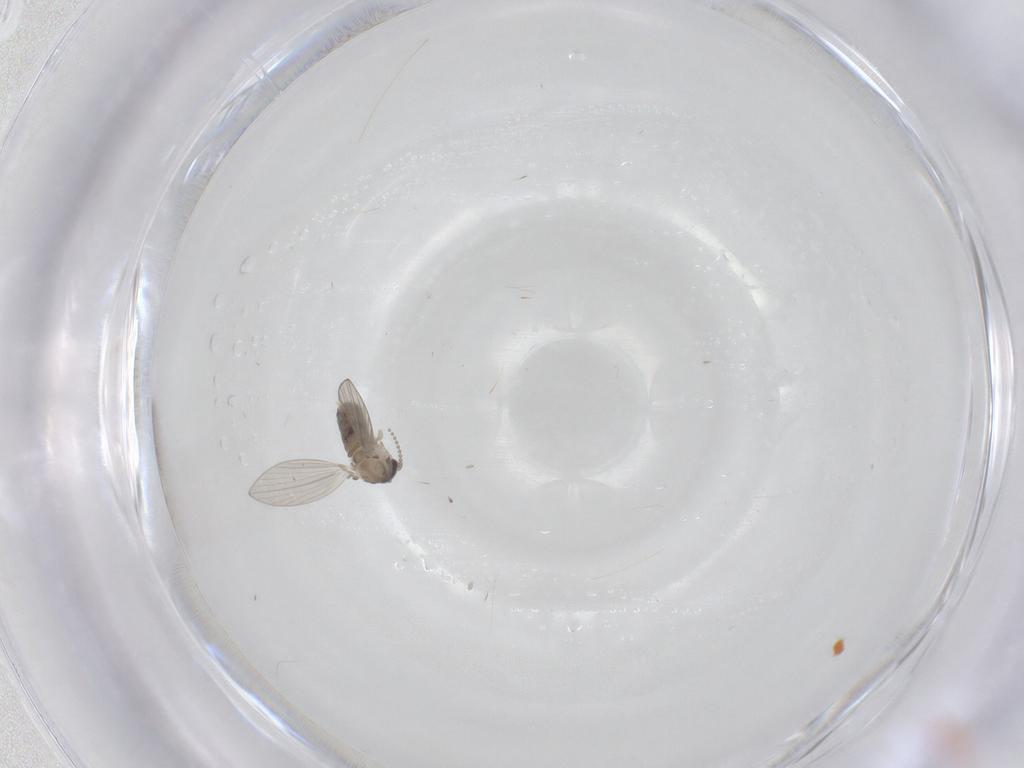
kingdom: Animalia
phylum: Arthropoda
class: Insecta
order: Diptera
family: Psychodidae
